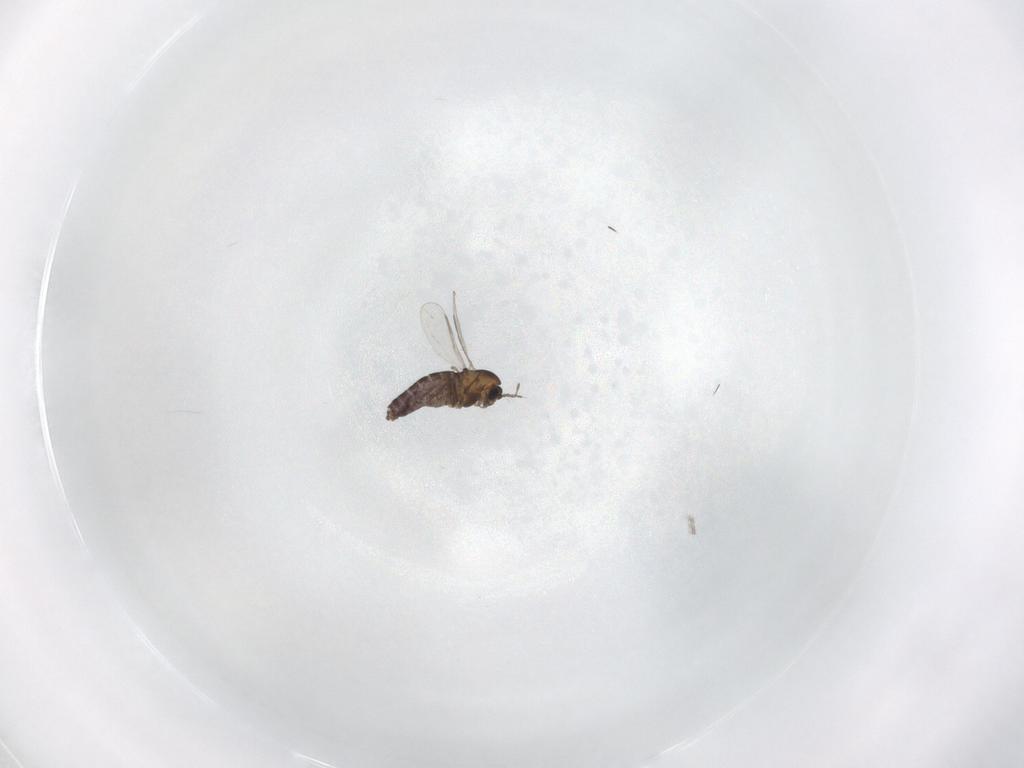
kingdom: Animalia
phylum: Arthropoda
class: Insecta
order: Diptera
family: Chironomidae
